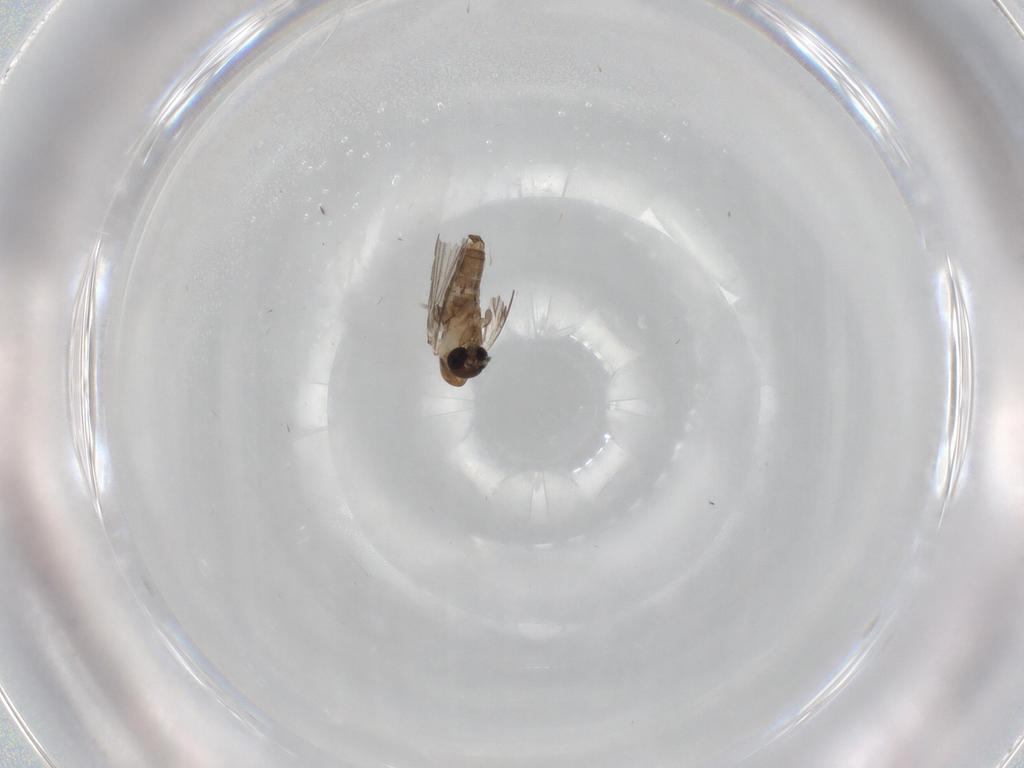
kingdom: Animalia
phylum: Arthropoda
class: Insecta
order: Diptera
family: Psychodidae
